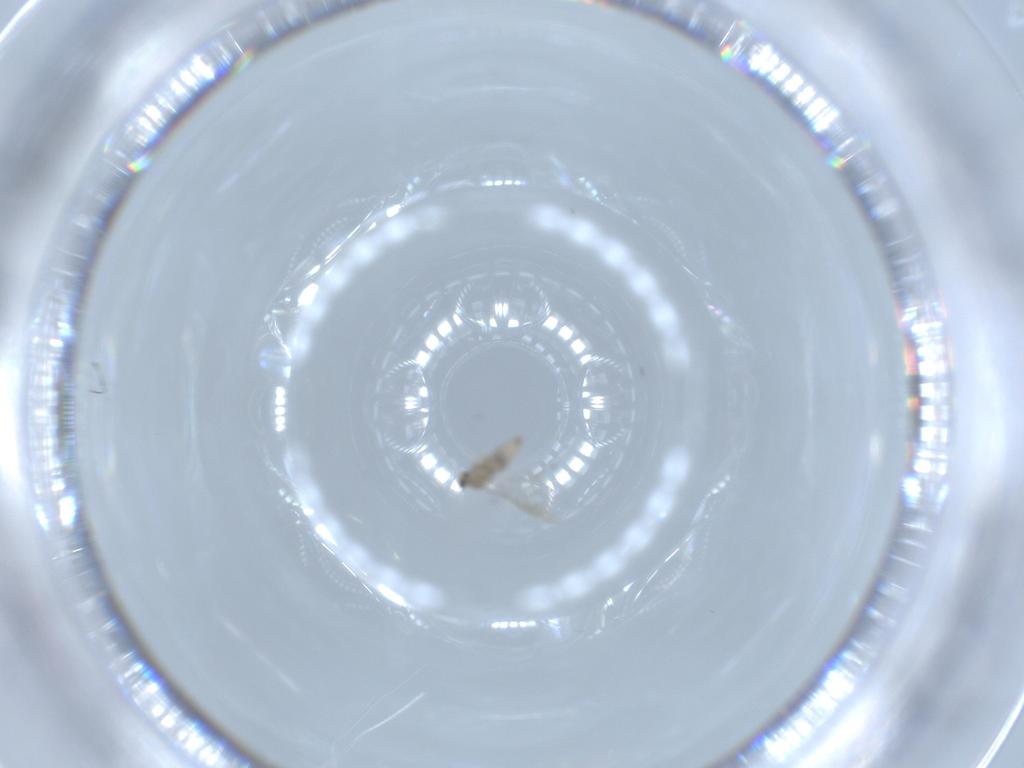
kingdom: Animalia
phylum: Arthropoda
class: Insecta
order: Diptera
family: Cecidomyiidae
